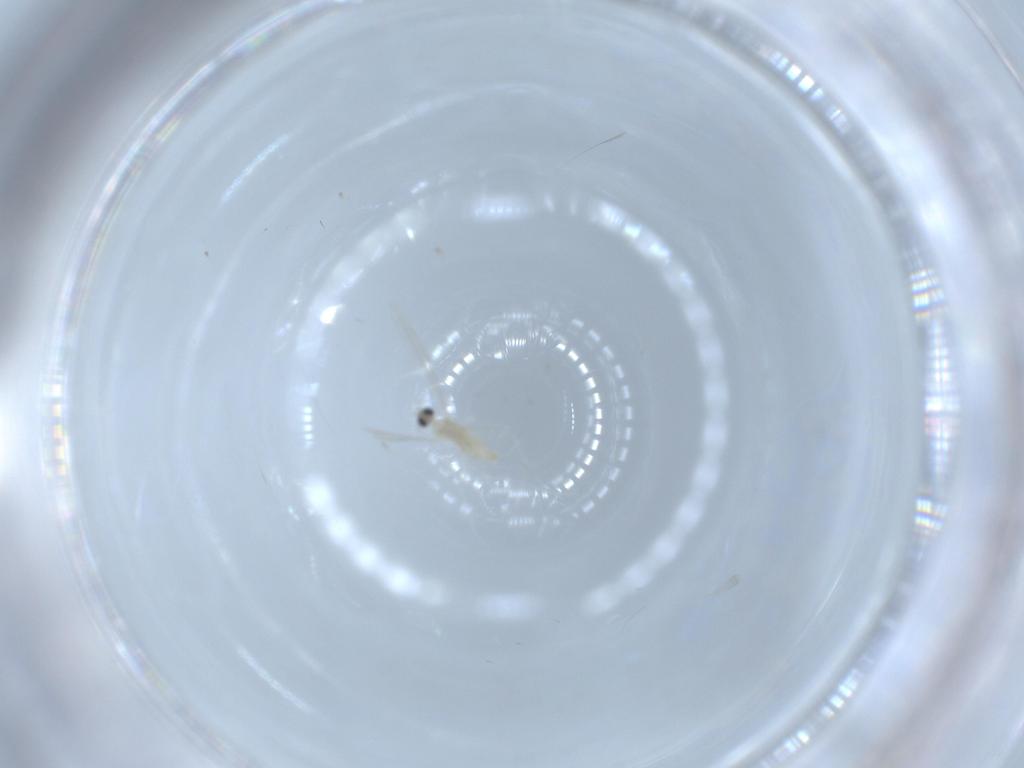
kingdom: Animalia
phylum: Arthropoda
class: Insecta
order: Diptera
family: Cecidomyiidae
